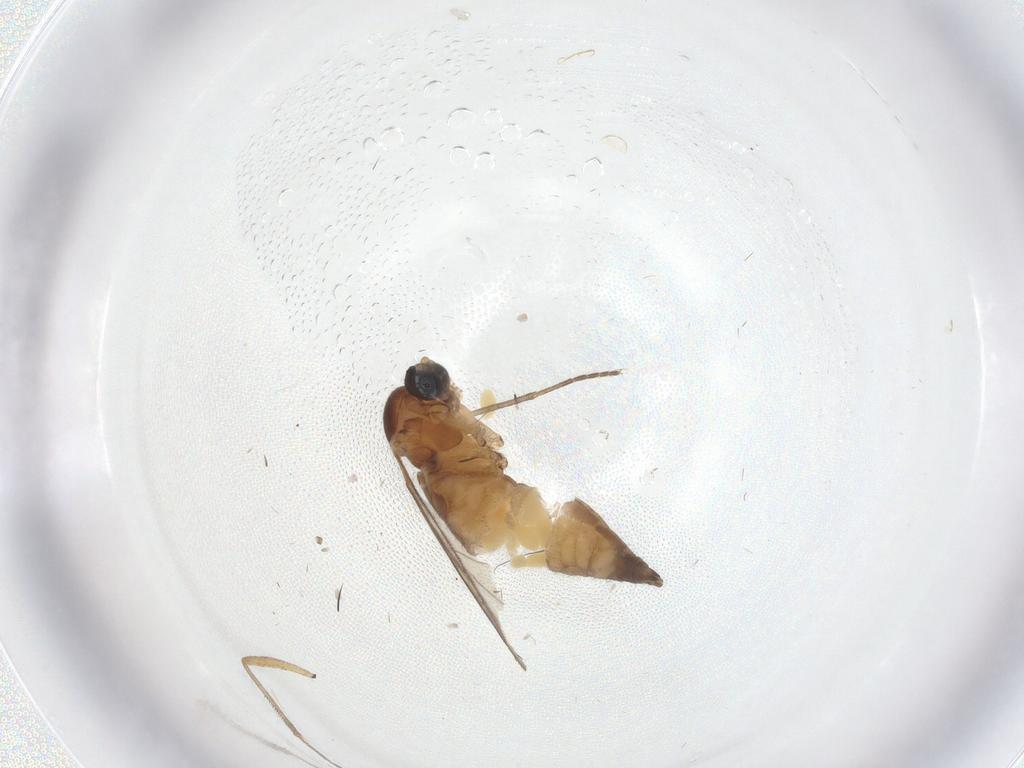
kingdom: Animalia
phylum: Arthropoda
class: Insecta
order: Diptera
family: Sciaridae
